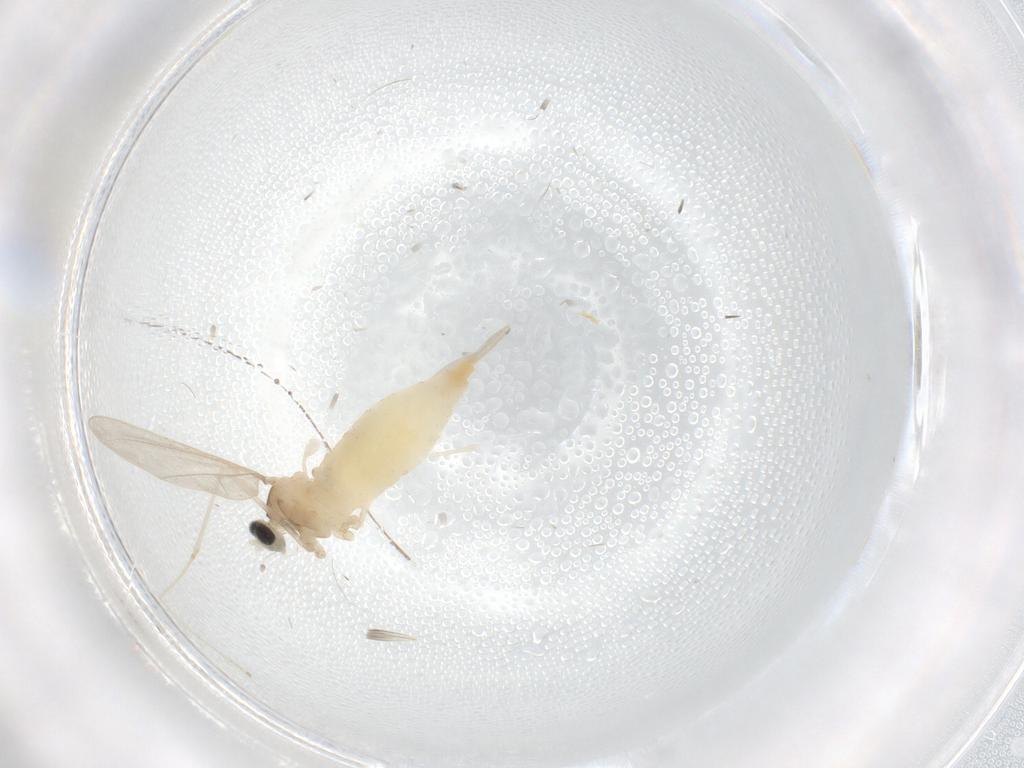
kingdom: Animalia
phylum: Arthropoda
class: Insecta
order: Diptera
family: Cecidomyiidae
